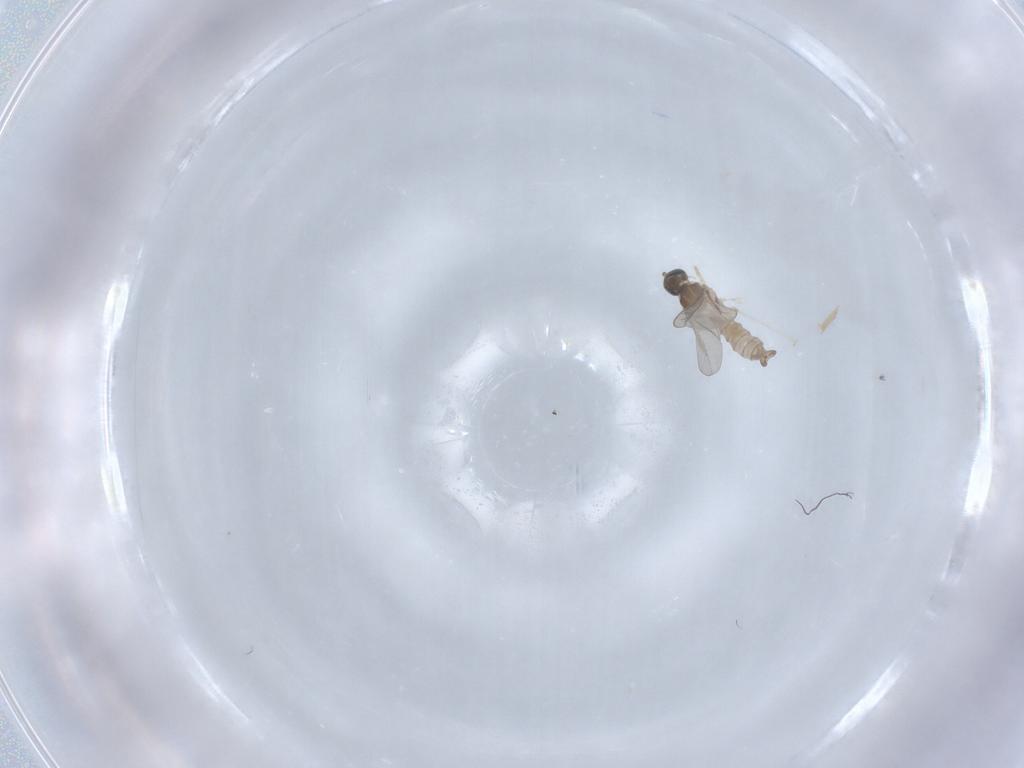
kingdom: Animalia
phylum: Arthropoda
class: Insecta
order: Diptera
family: Cecidomyiidae
